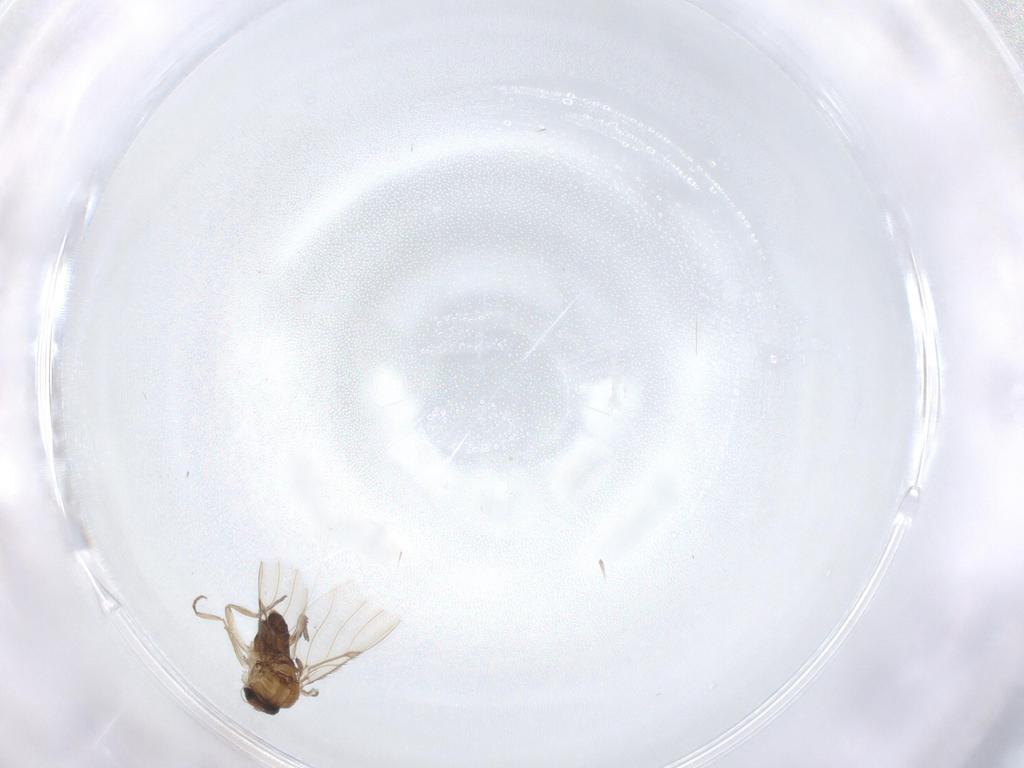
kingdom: Animalia
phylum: Arthropoda
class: Insecta
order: Diptera
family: Phoridae
